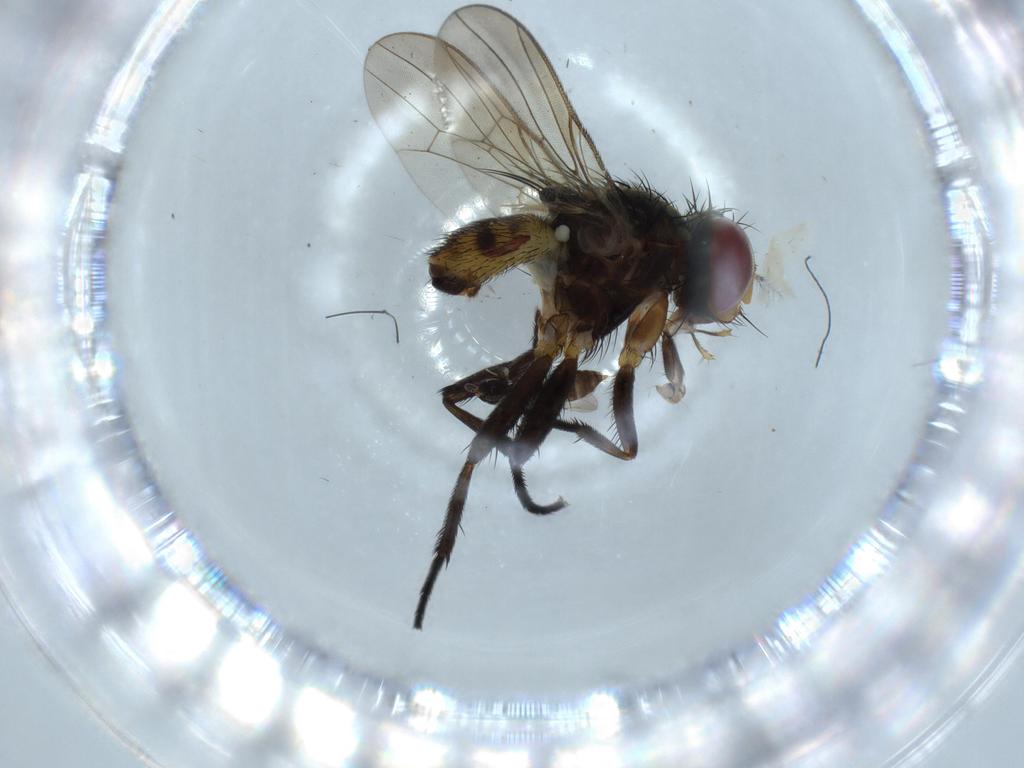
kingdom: Animalia
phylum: Arthropoda
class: Insecta
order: Diptera
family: Anthomyiidae
